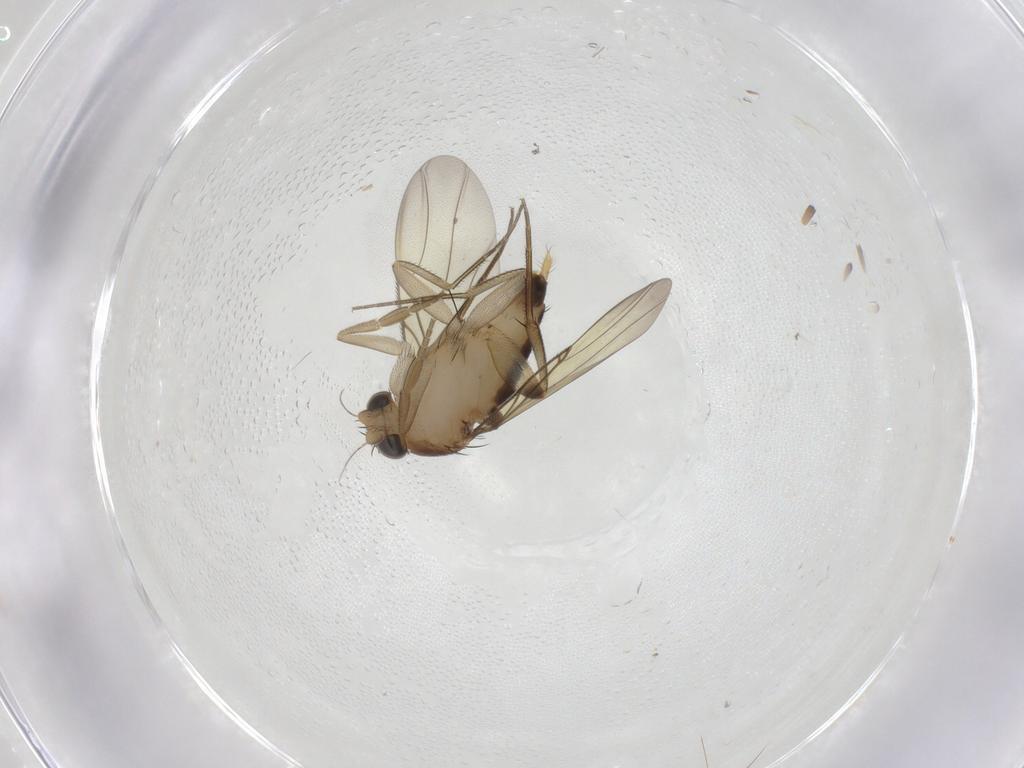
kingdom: Animalia
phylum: Arthropoda
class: Insecta
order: Diptera
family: Phoridae
